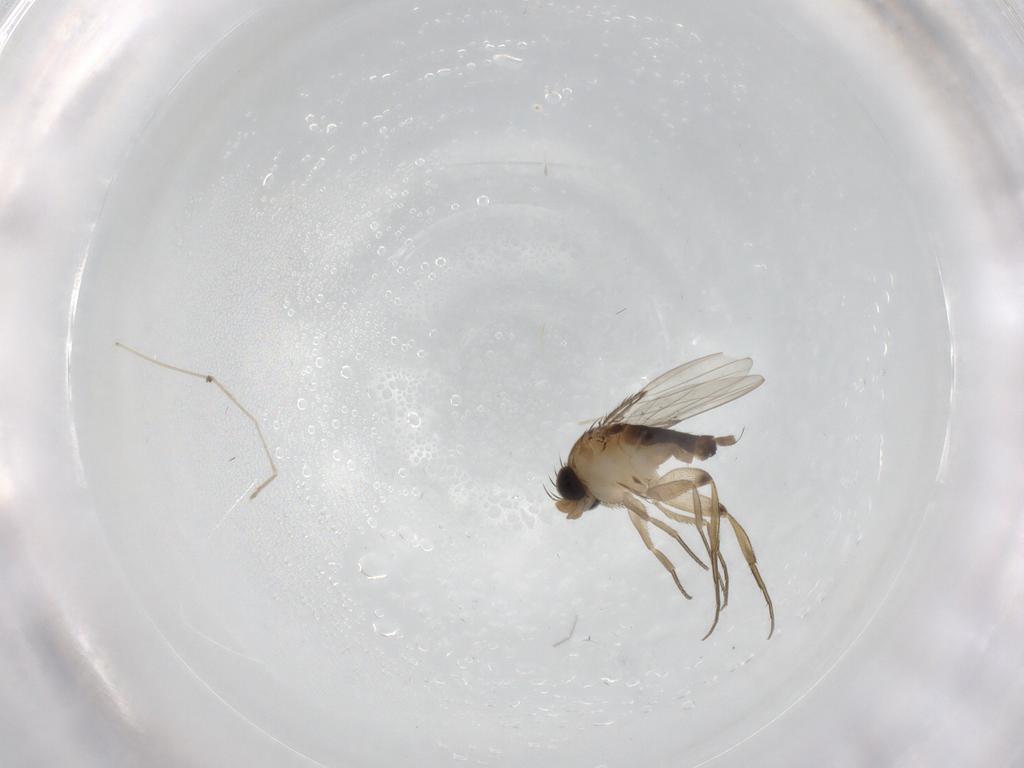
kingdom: Animalia
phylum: Arthropoda
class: Insecta
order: Diptera
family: Phoridae
